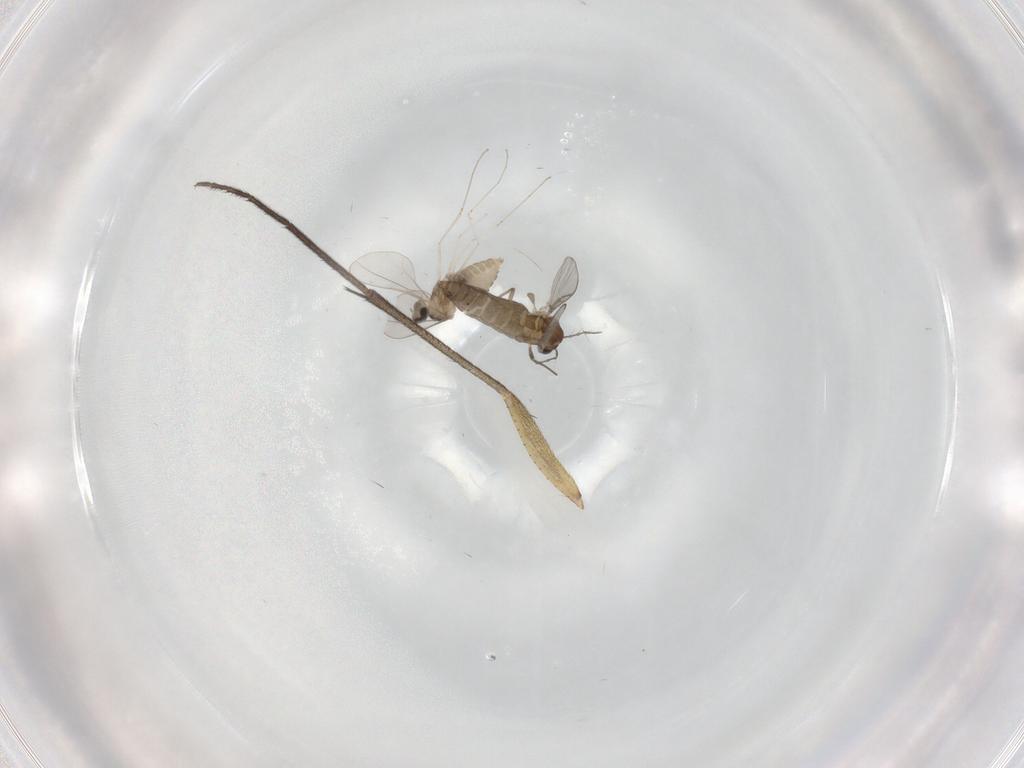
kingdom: Animalia
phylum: Arthropoda
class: Insecta
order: Diptera
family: Chironomidae
